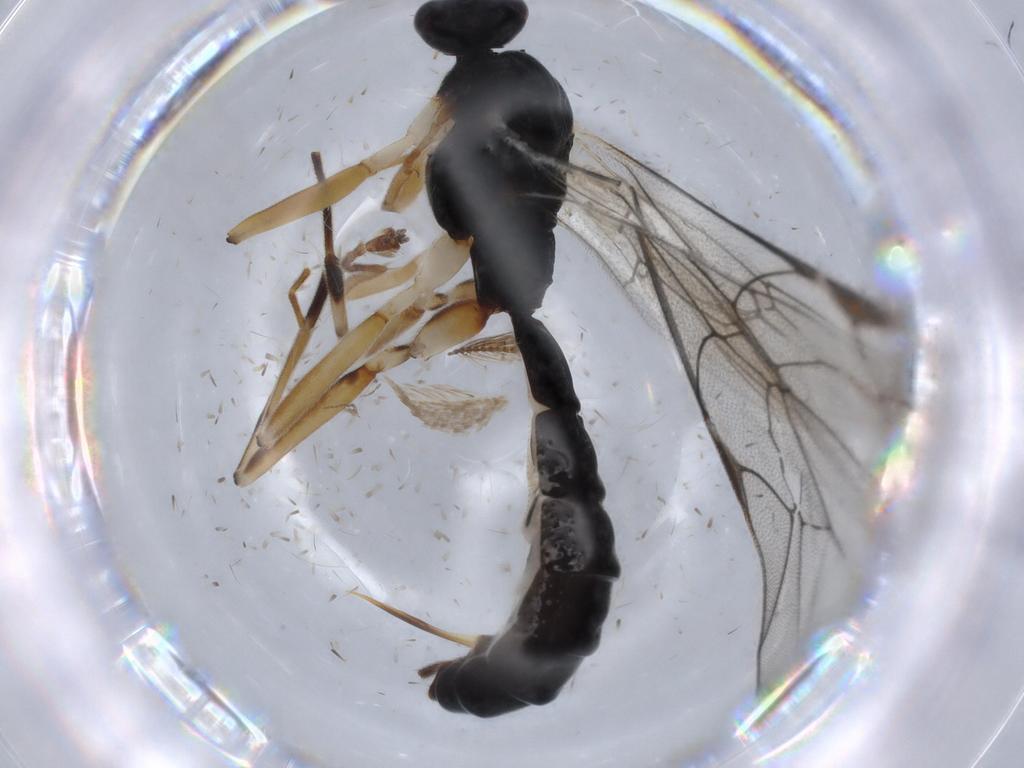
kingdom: Animalia
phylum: Arthropoda
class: Insecta
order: Hymenoptera
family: Ichneumonidae
